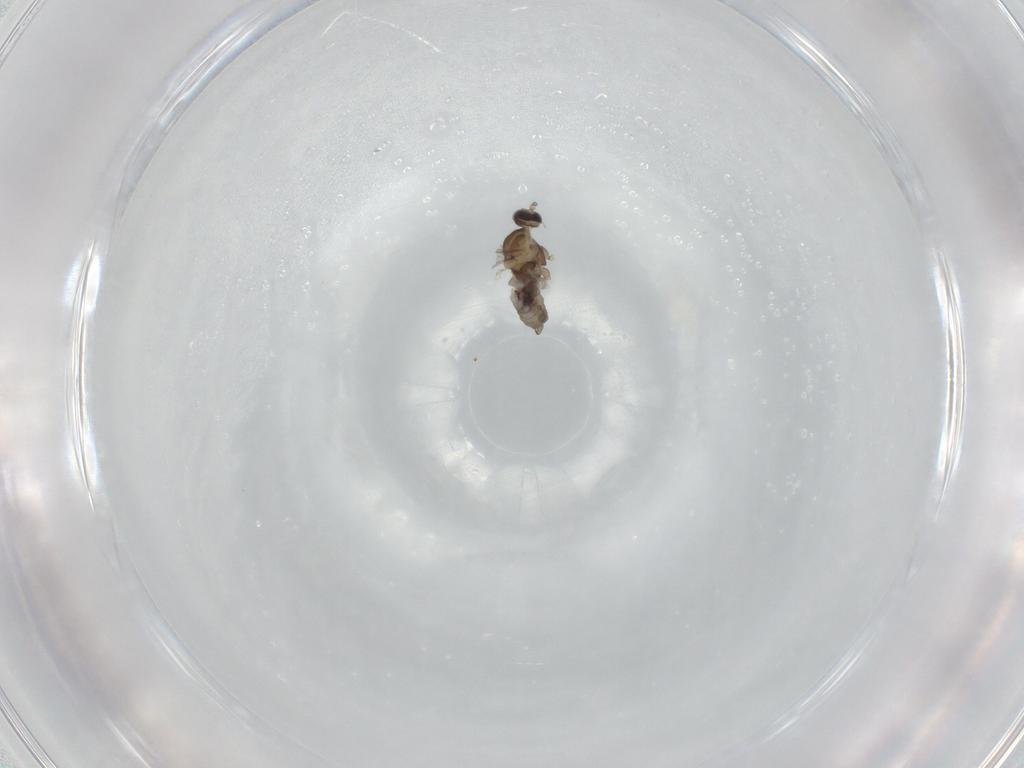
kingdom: Animalia
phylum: Arthropoda
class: Insecta
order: Diptera
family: Cecidomyiidae
